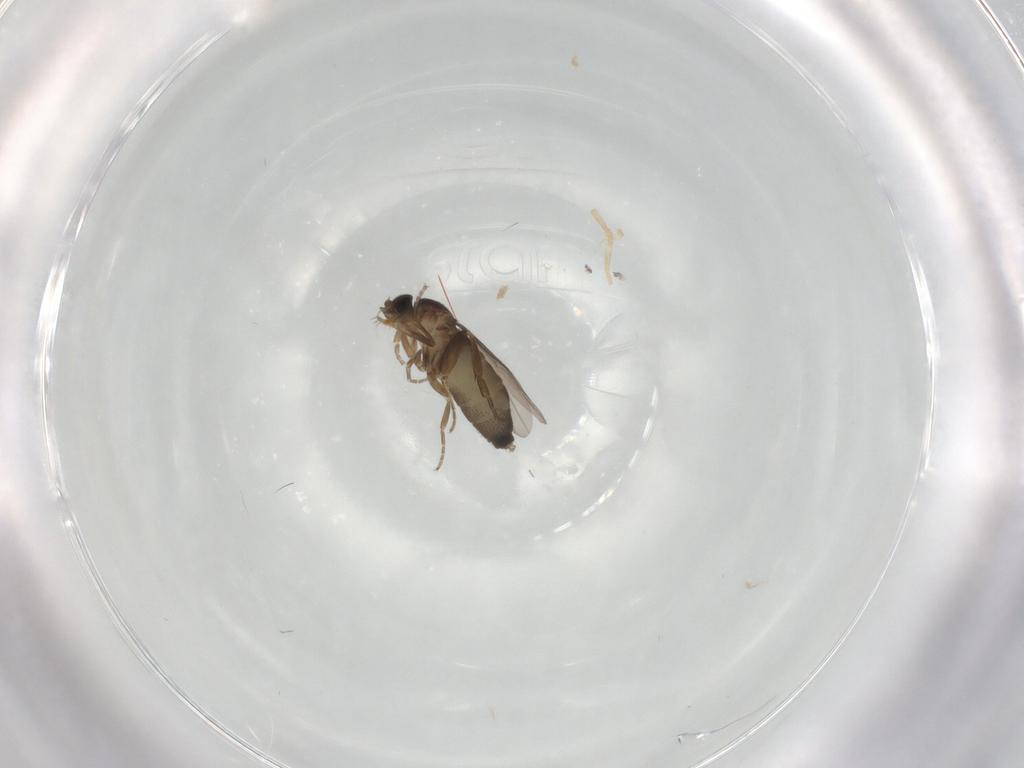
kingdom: Animalia
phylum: Arthropoda
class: Insecta
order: Diptera
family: Phoridae
